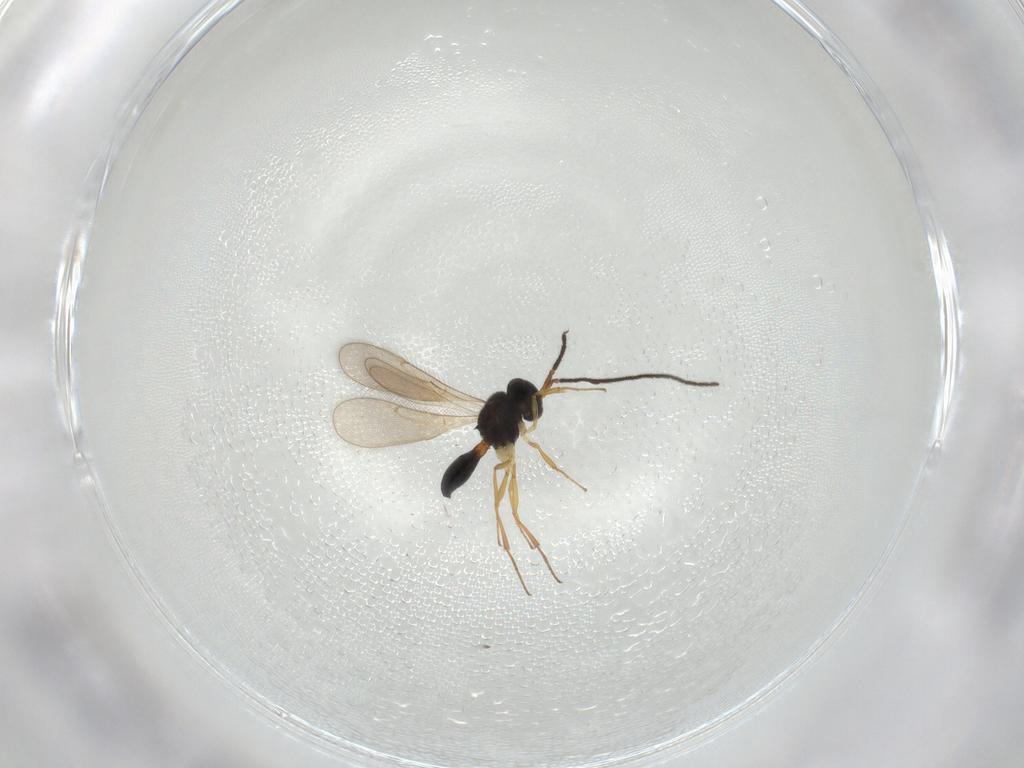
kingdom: Animalia
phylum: Arthropoda
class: Insecta
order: Hymenoptera
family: Scelionidae
